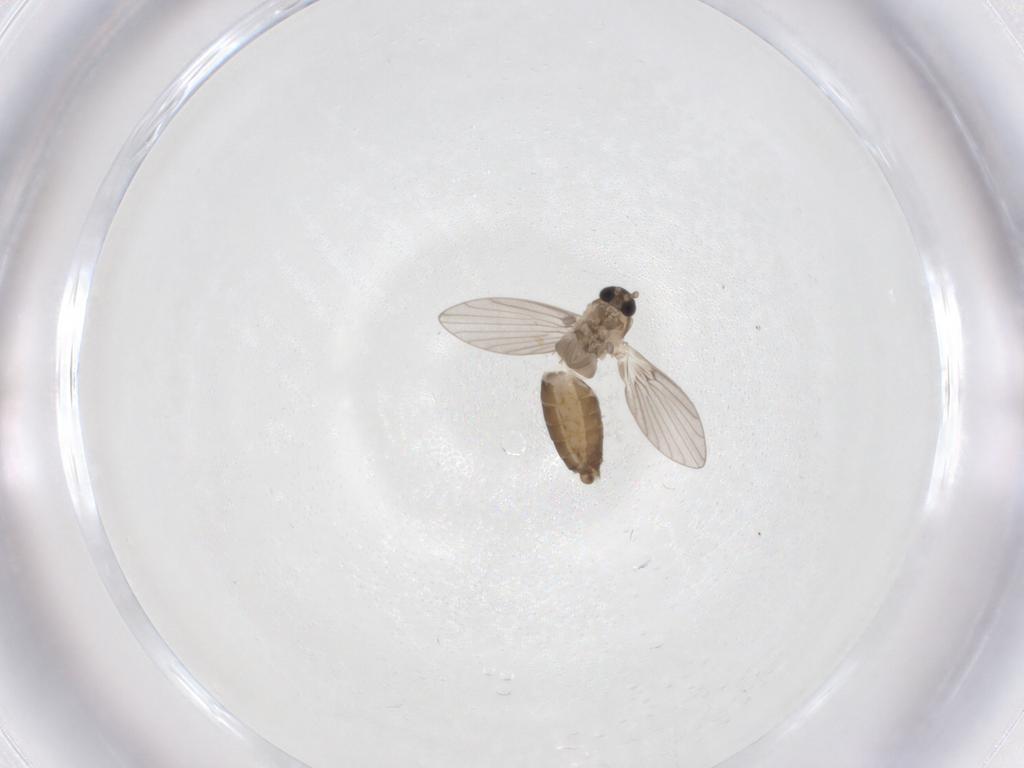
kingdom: Animalia
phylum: Arthropoda
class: Insecta
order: Diptera
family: Psychodidae
